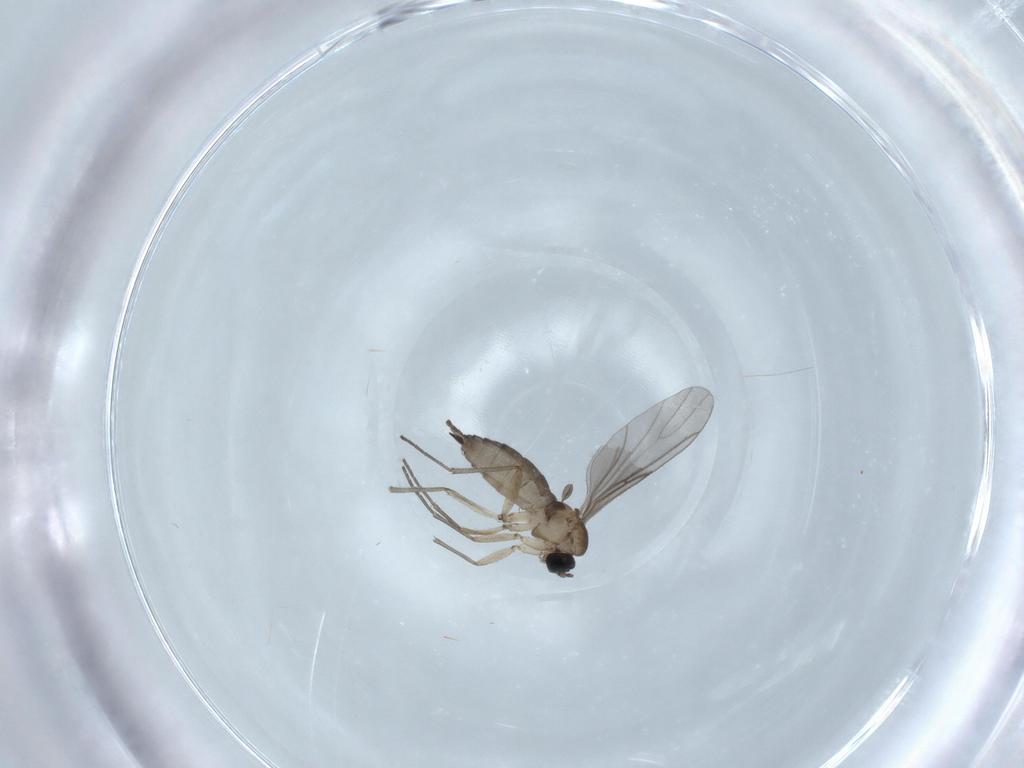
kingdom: Animalia
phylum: Arthropoda
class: Insecta
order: Diptera
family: Sciaridae
